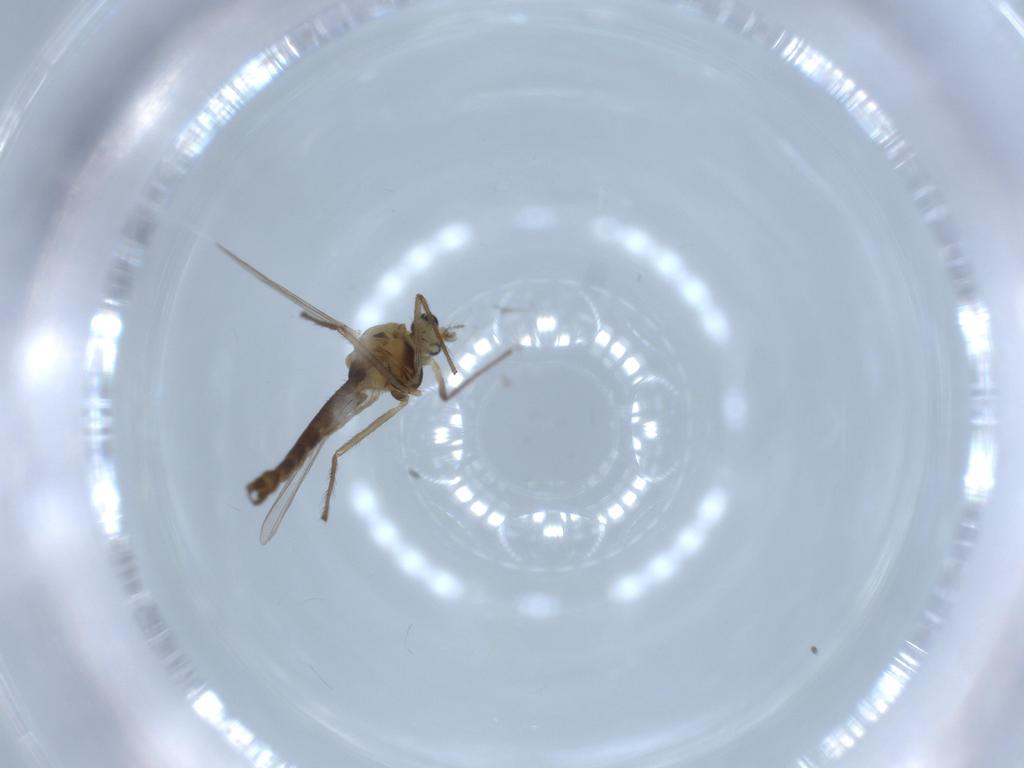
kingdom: Animalia
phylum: Arthropoda
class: Insecta
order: Diptera
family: Chironomidae
